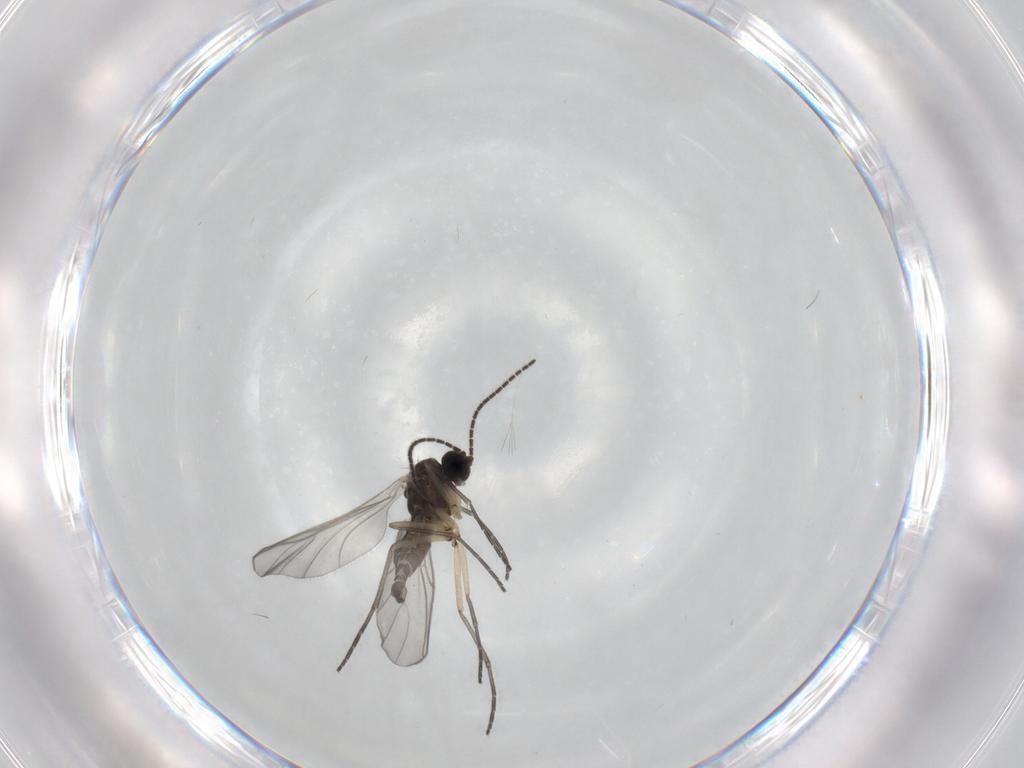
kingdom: Animalia
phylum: Arthropoda
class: Insecta
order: Diptera
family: Sciaridae
